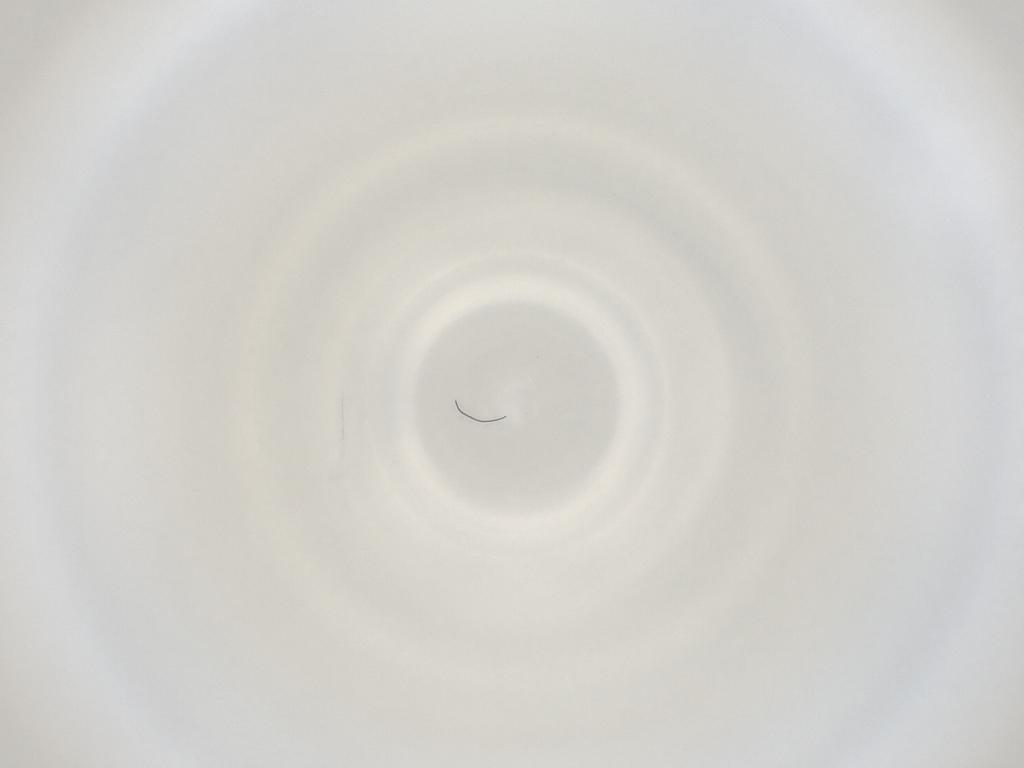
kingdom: Animalia
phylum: Arthropoda
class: Insecta
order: Diptera
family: Cecidomyiidae
